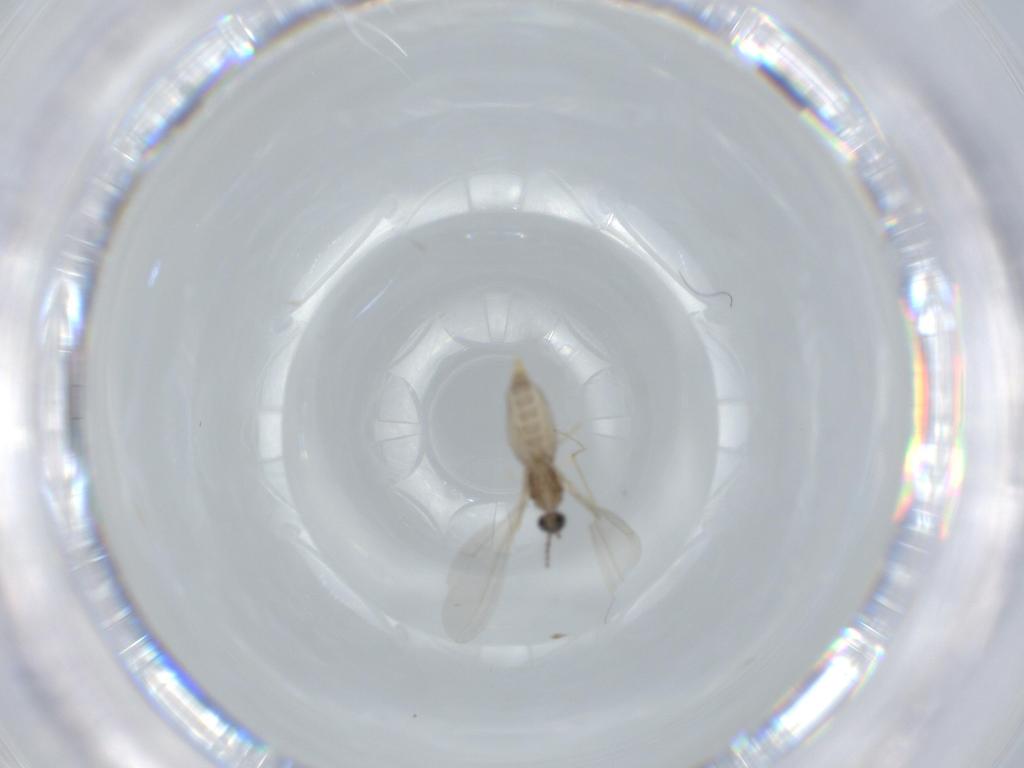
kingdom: Animalia
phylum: Arthropoda
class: Insecta
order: Diptera
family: Cecidomyiidae
